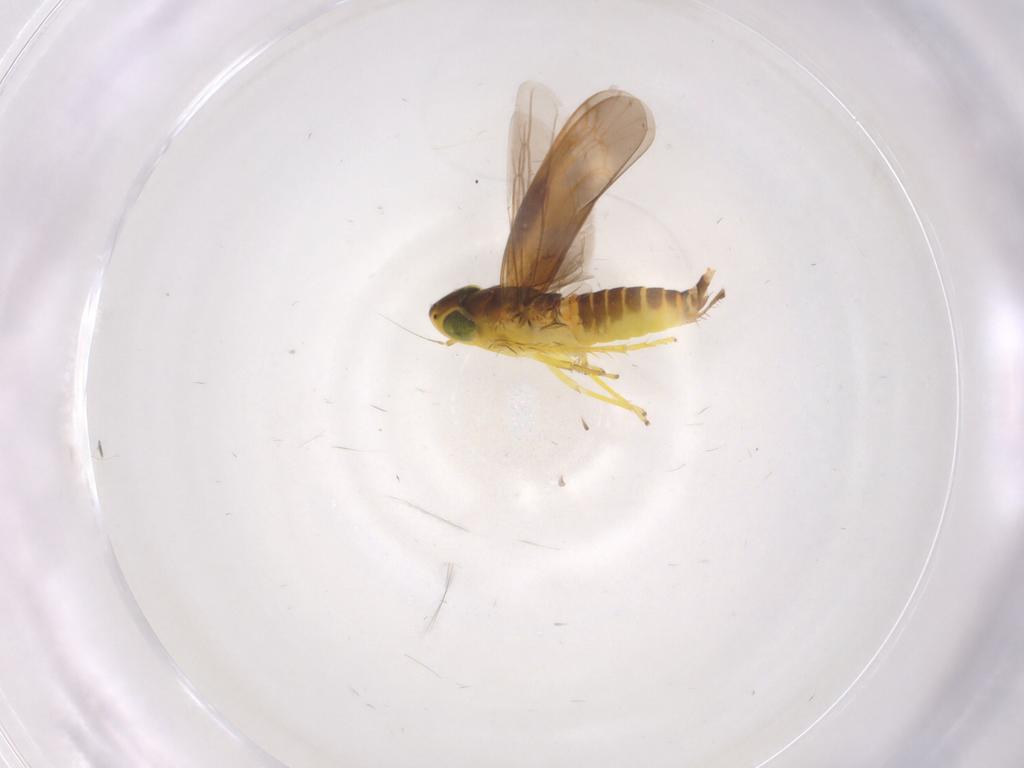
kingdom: Animalia
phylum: Arthropoda
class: Insecta
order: Hemiptera
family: Cicadellidae
